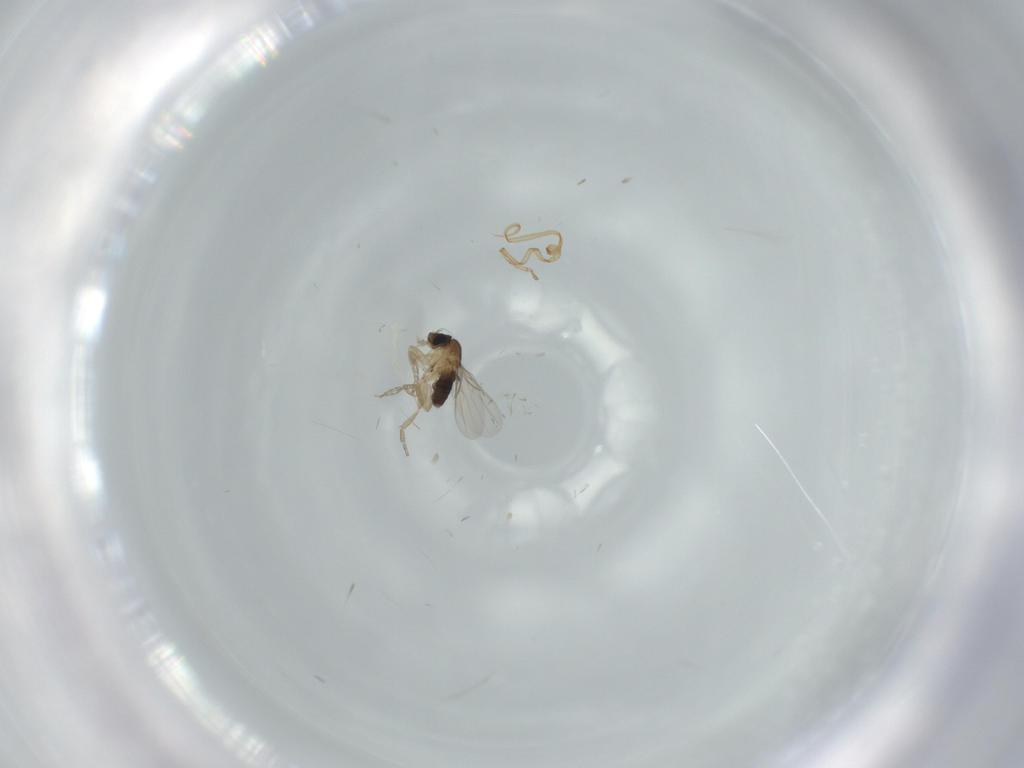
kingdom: Animalia
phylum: Arthropoda
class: Insecta
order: Diptera
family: Phoridae
